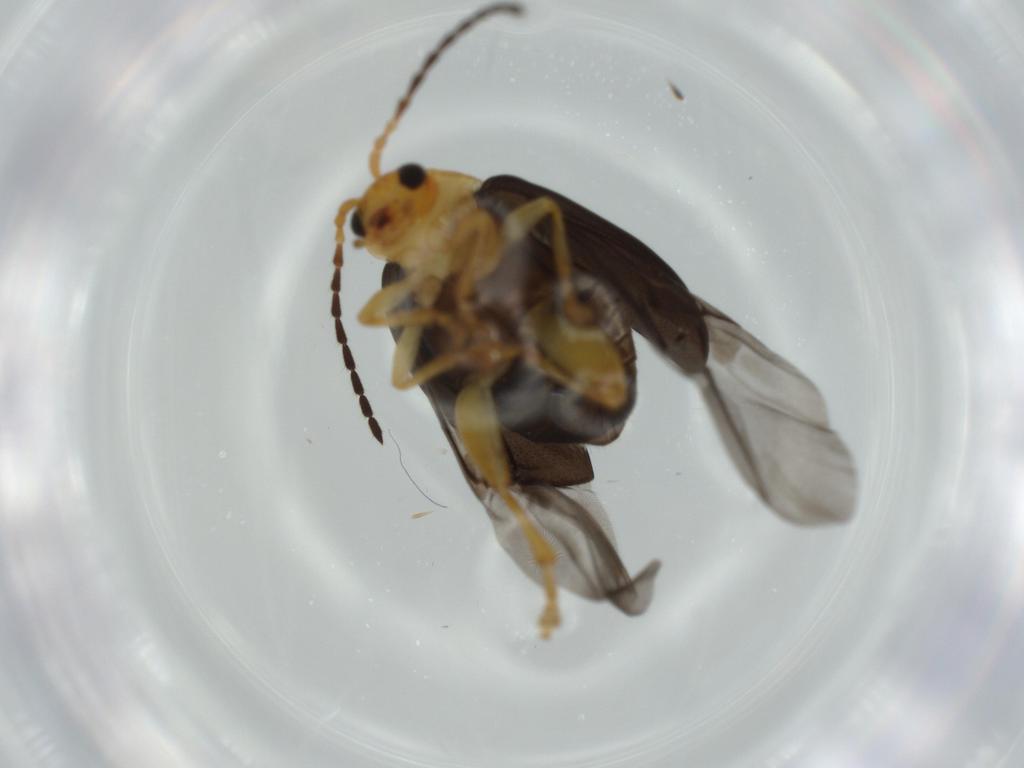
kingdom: Animalia
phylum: Arthropoda
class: Insecta
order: Coleoptera
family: Chrysomelidae
